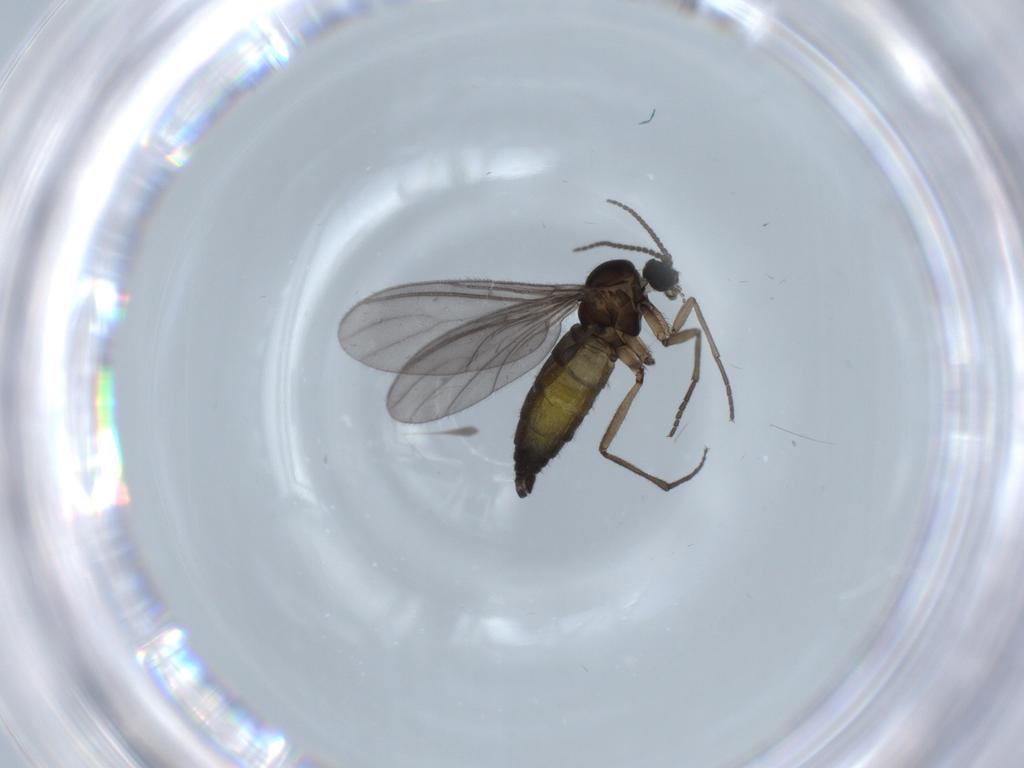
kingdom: Animalia
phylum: Arthropoda
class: Insecta
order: Diptera
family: Sciaridae
